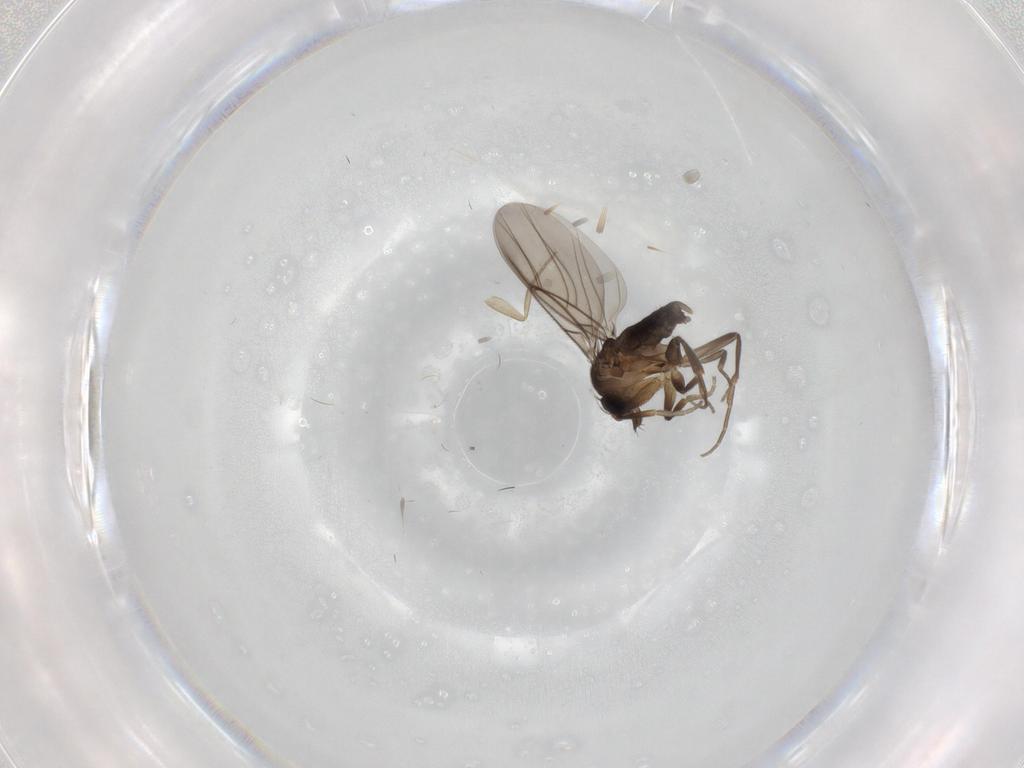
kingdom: Animalia
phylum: Arthropoda
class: Insecta
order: Diptera
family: Phoridae
